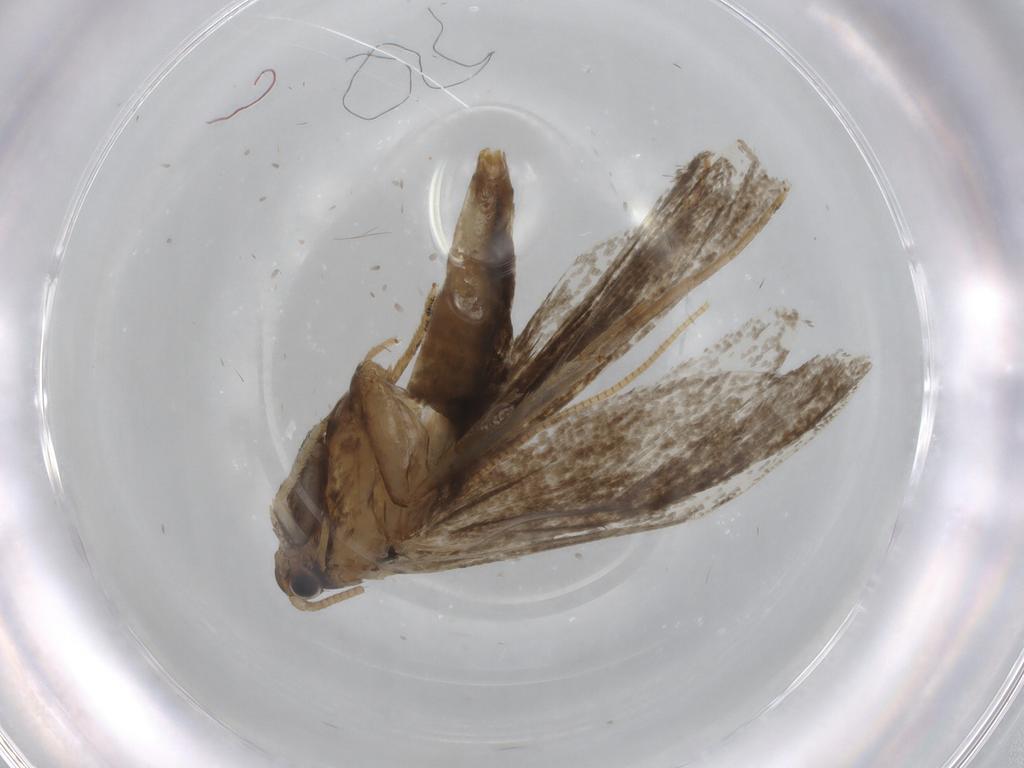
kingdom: Animalia
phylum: Arthropoda
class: Insecta
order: Lepidoptera
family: Tineidae
